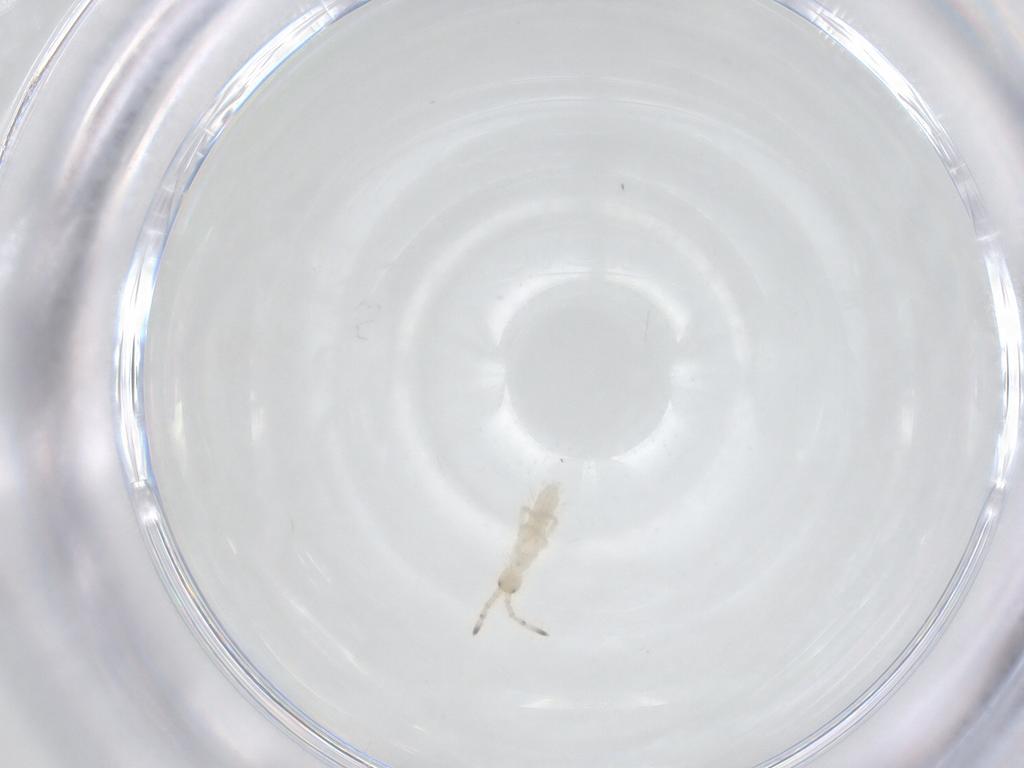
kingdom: Animalia
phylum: Arthropoda
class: Collembola
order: Entomobryomorpha
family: Entomobryidae
